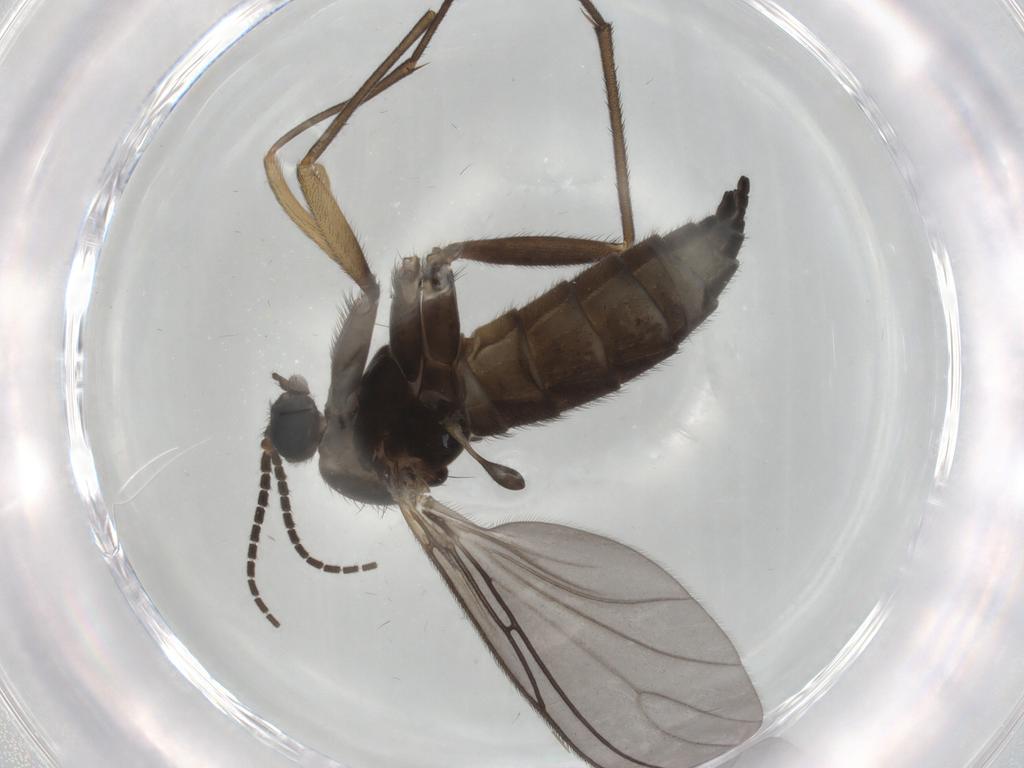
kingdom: Animalia
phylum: Arthropoda
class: Insecta
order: Diptera
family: Sciaridae
